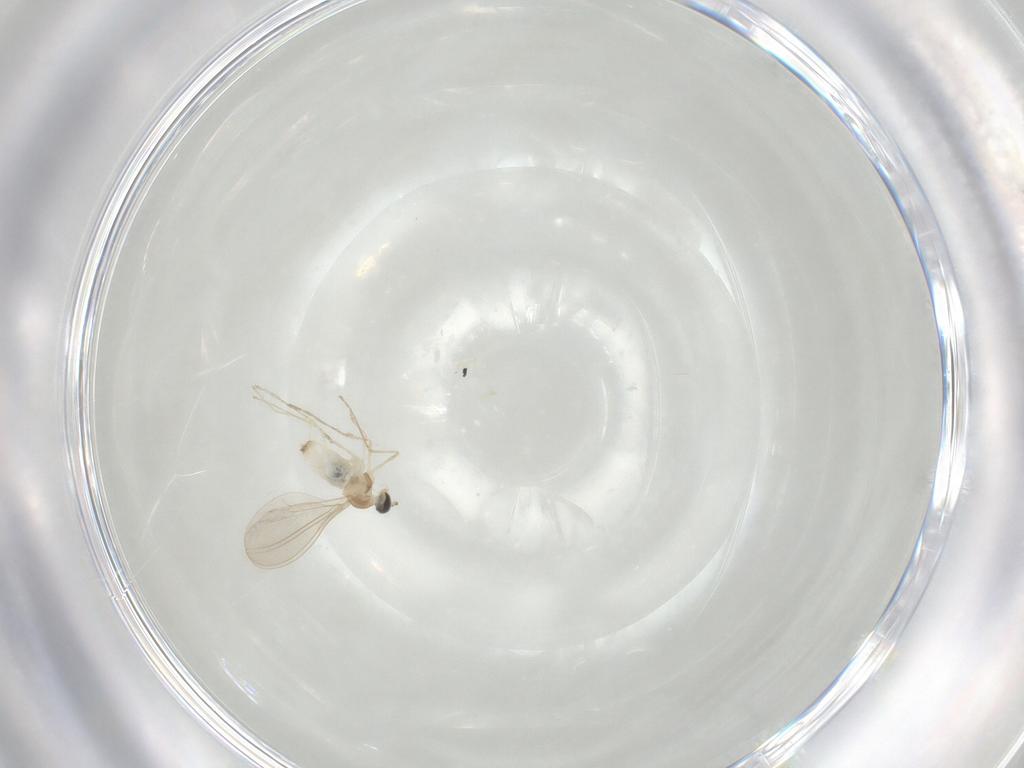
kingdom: Animalia
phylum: Arthropoda
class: Insecta
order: Diptera
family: Cecidomyiidae
